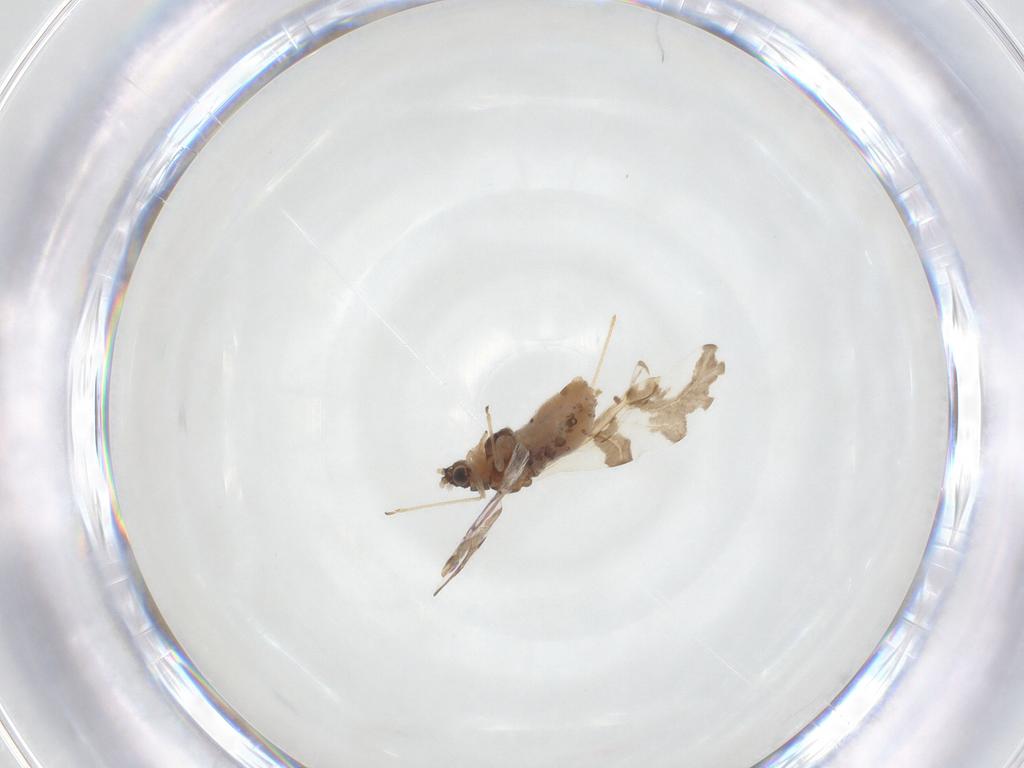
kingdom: Animalia
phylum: Arthropoda
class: Insecta
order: Hemiptera
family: Aphididae
